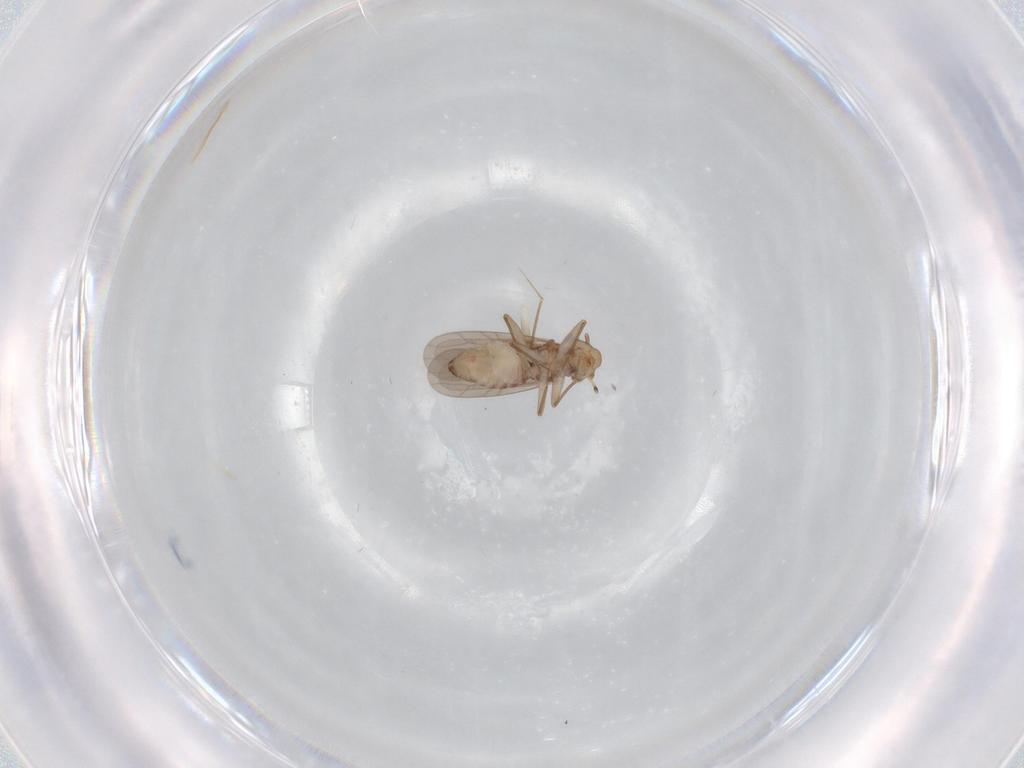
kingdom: Animalia
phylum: Arthropoda
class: Insecta
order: Psocodea
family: Lepidopsocidae
